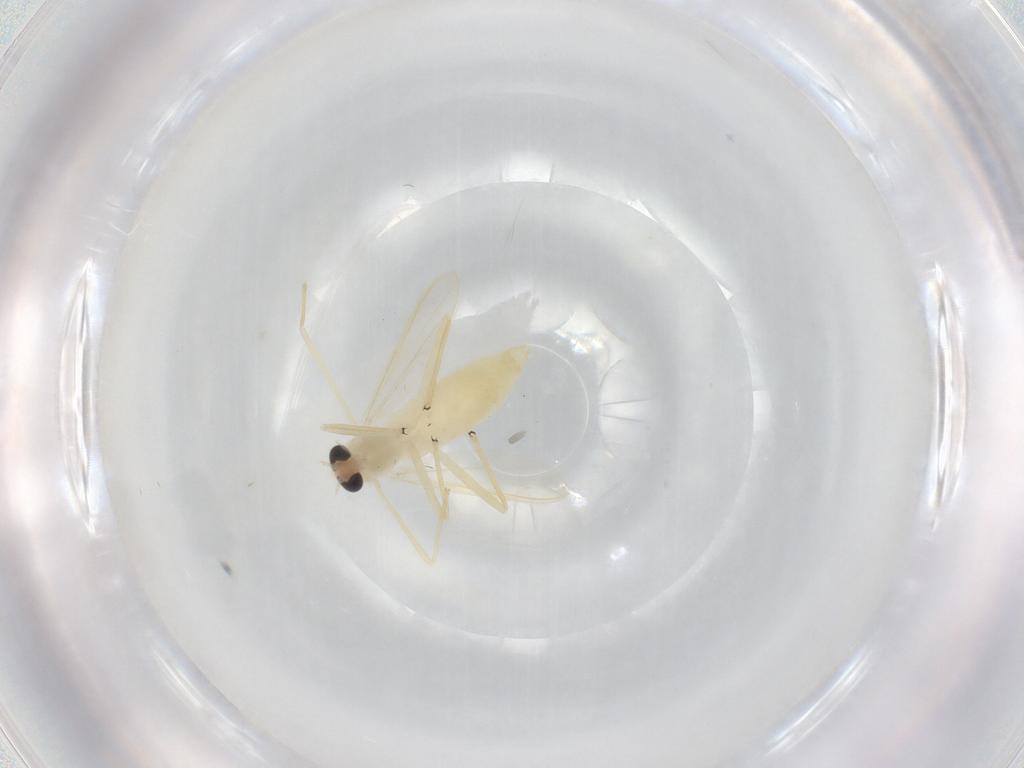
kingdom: Animalia
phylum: Arthropoda
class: Insecta
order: Diptera
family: Chironomidae
